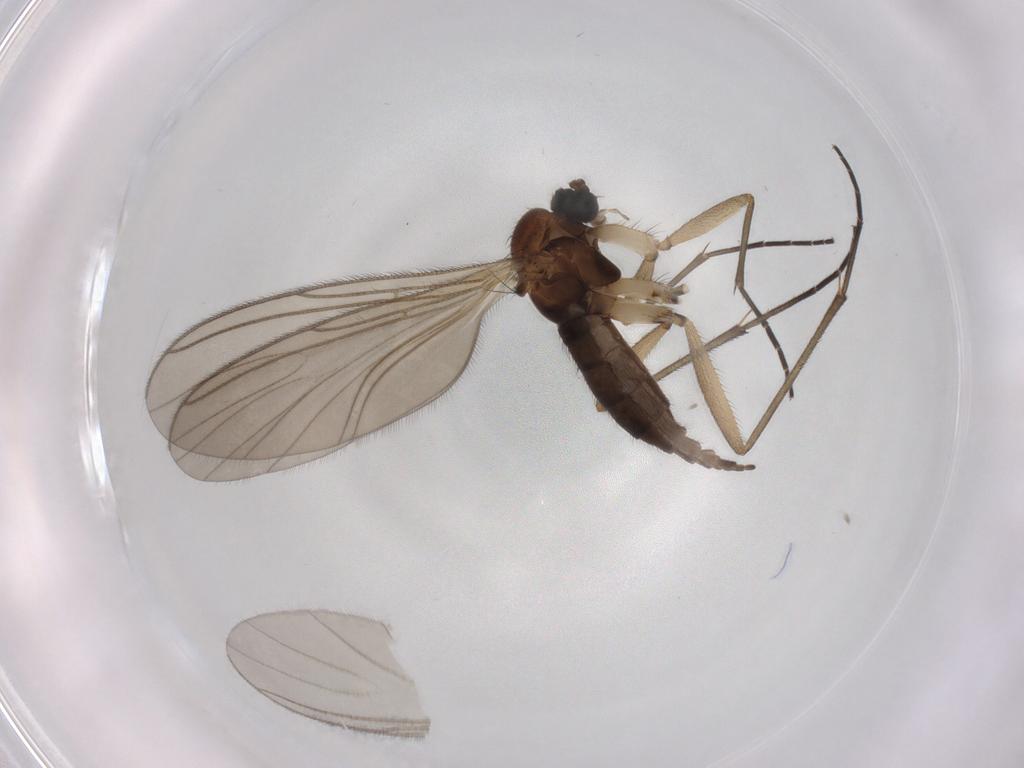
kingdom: Animalia
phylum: Arthropoda
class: Insecta
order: Diptera
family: Sciaridae
